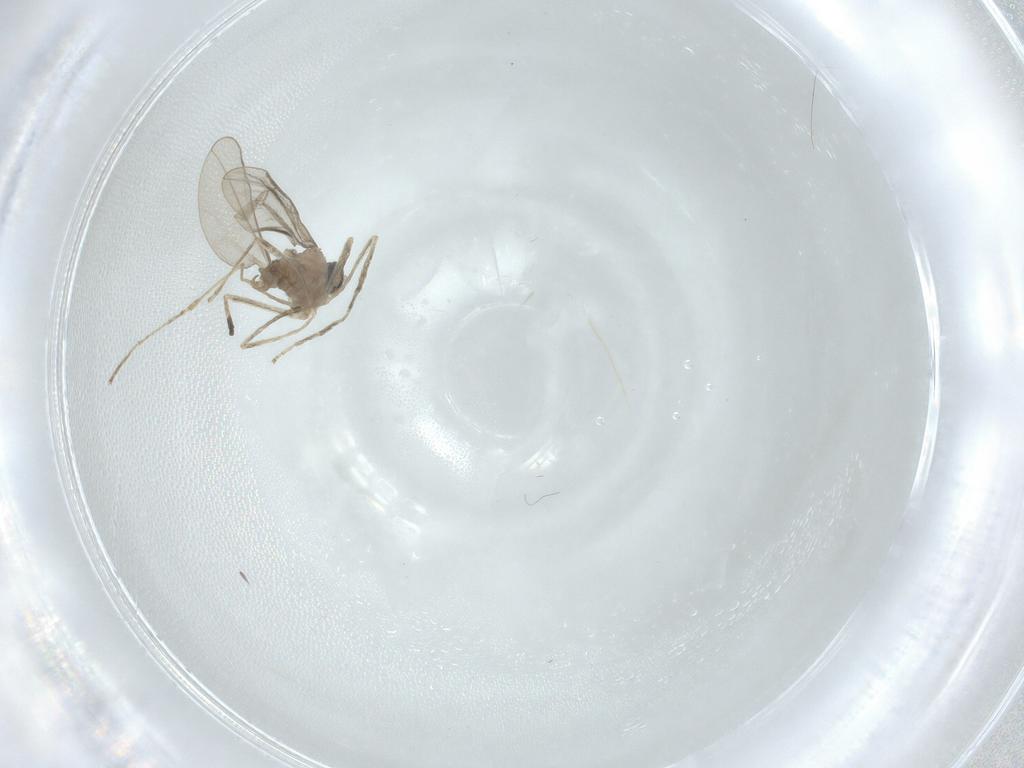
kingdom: Animalia
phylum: Arthropoda
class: Insecta
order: Diptera
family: Cecidomyiidae
